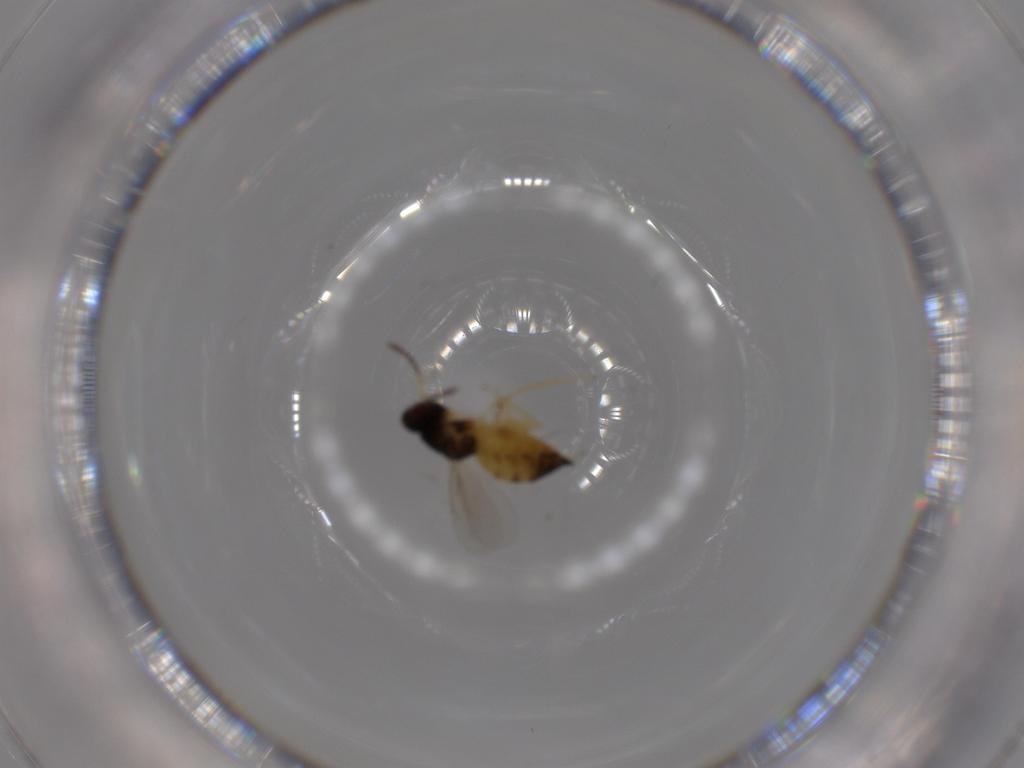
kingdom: Animalia
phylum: Arthropoda
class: Insecta
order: Hymenoptera
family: Eulophidae
